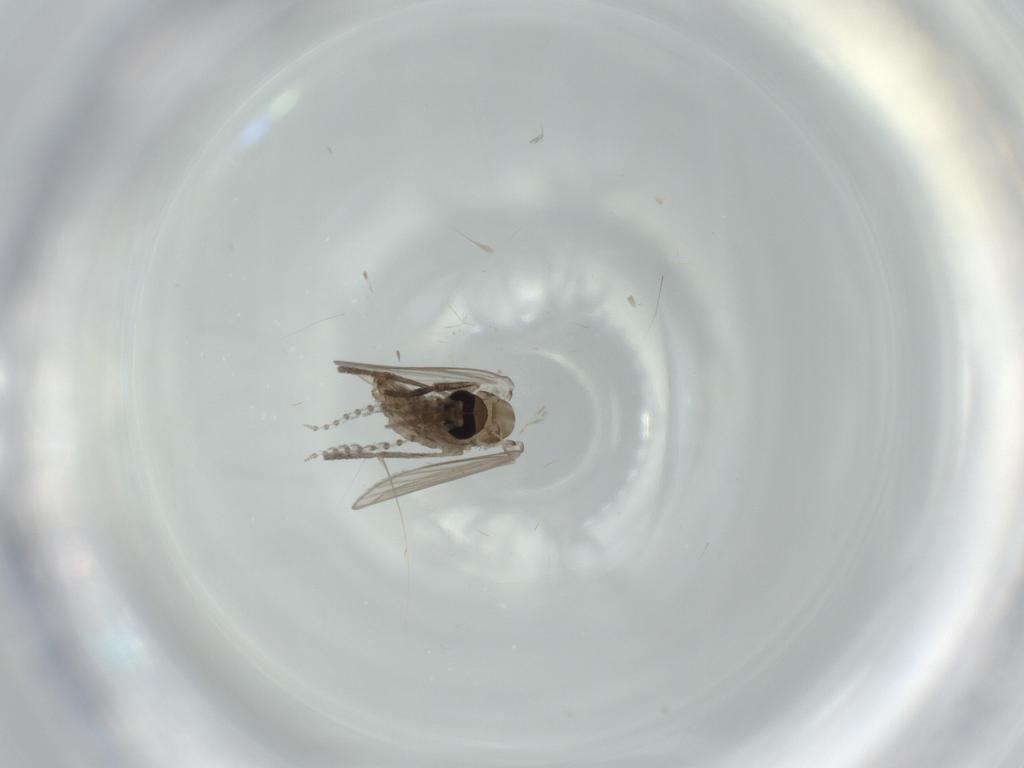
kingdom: Animalia
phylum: Arthropoda
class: Insecta
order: Diptera
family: Psychodidae
